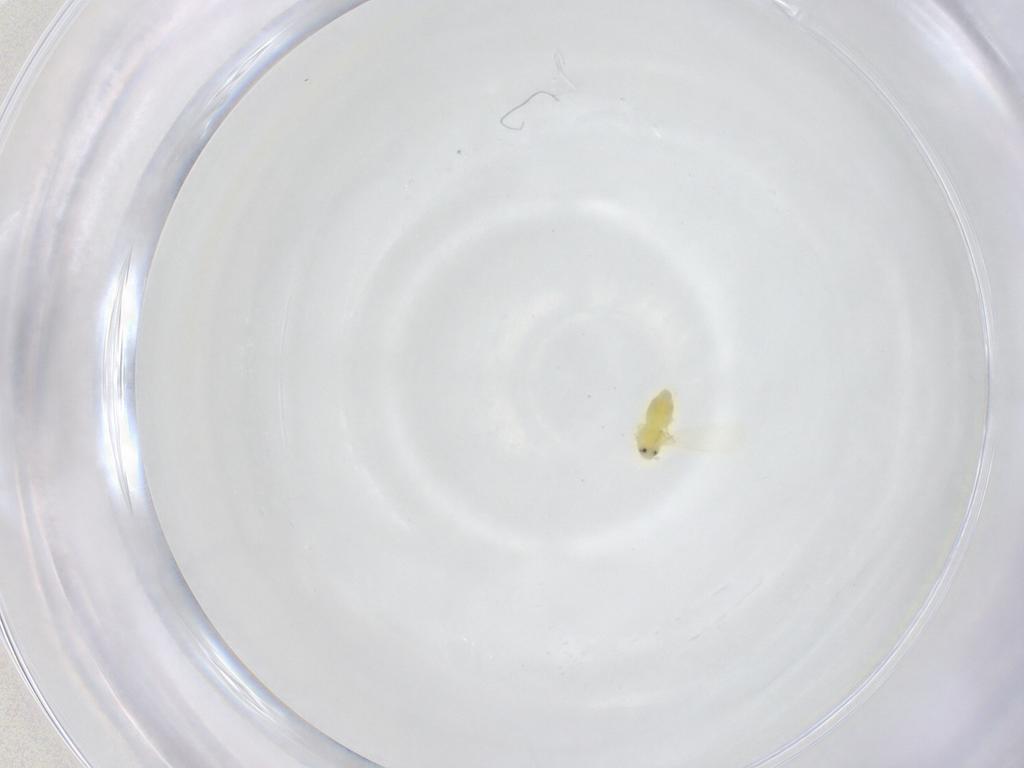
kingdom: Animalia
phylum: Arthropoda
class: Insecta
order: Hemiptera
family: Aleyrodidae
